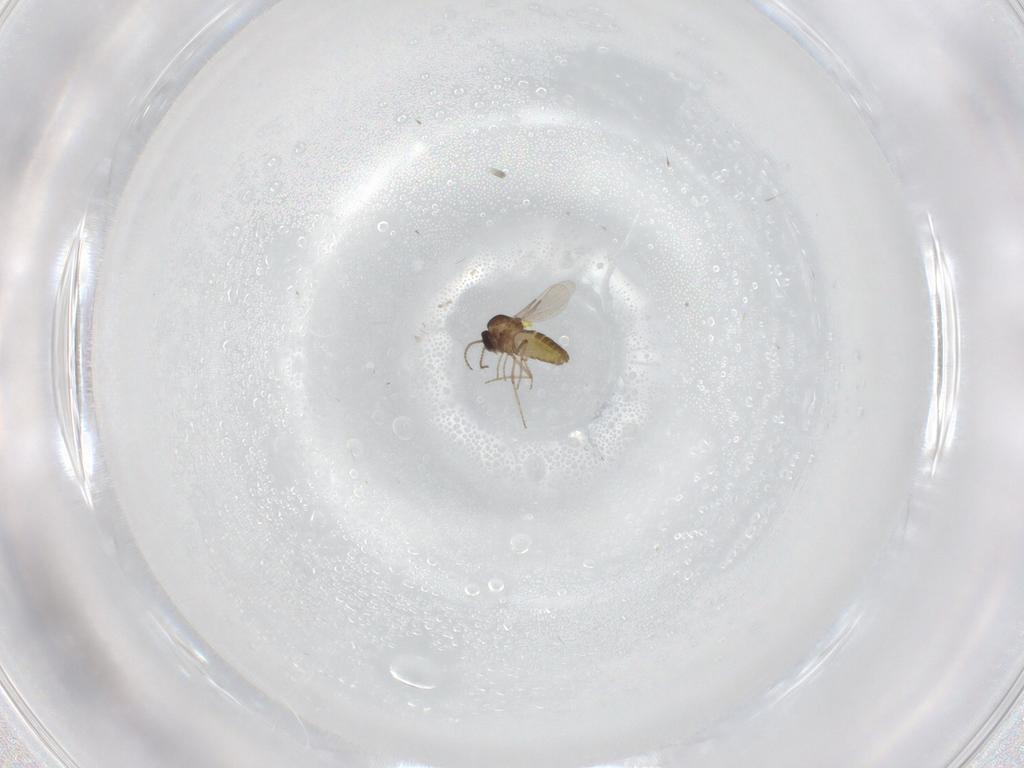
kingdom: Animalia
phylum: Arthropoda
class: Insecta
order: Diptera
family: Ceratopogonidae
